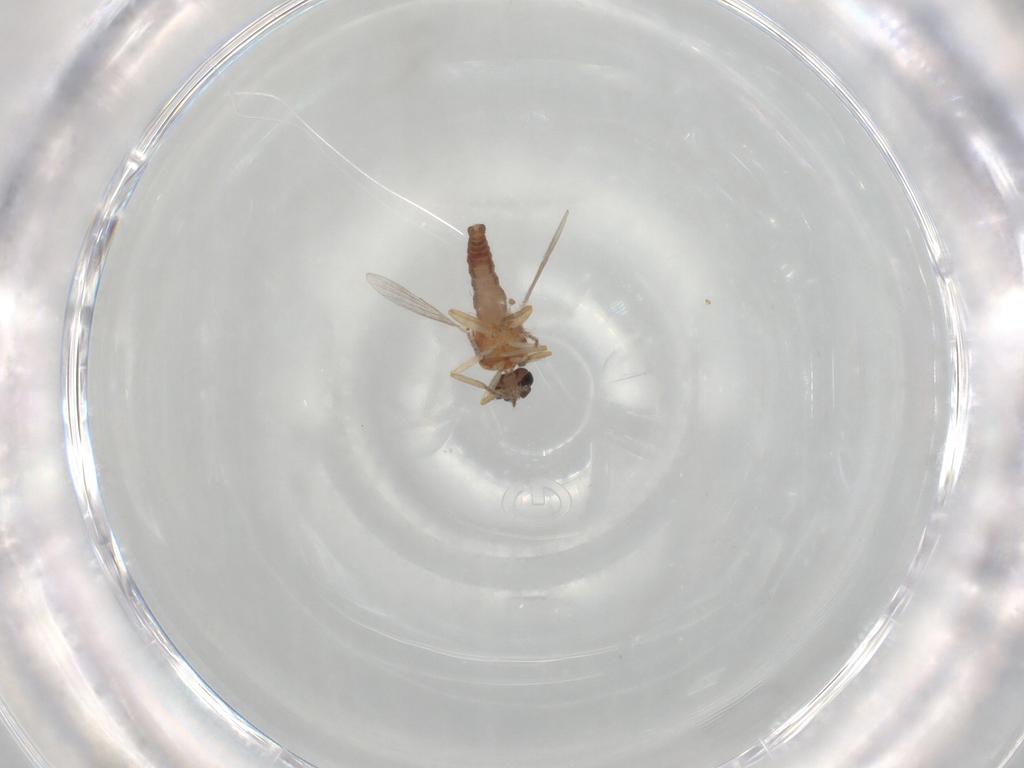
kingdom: Animalia
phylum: Arthropoda
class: Insecta
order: Diptera
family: Ceratopogonidae
